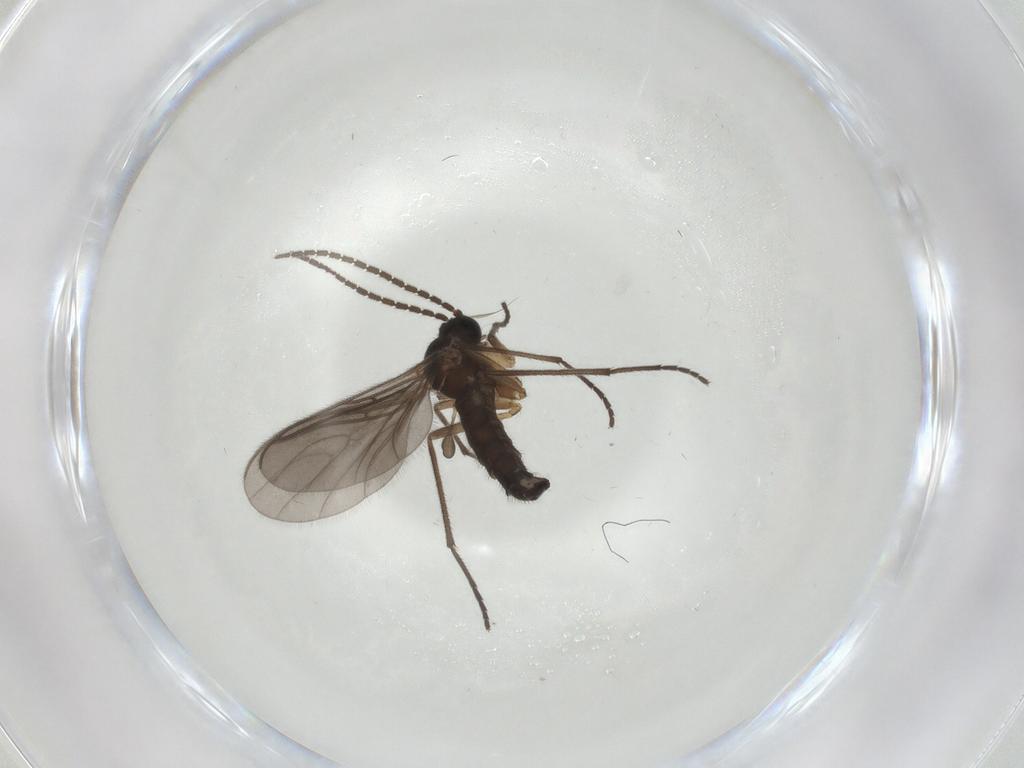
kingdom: Animalia
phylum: Arthropoda
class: Insecta
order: Diptera
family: Sciaridae
